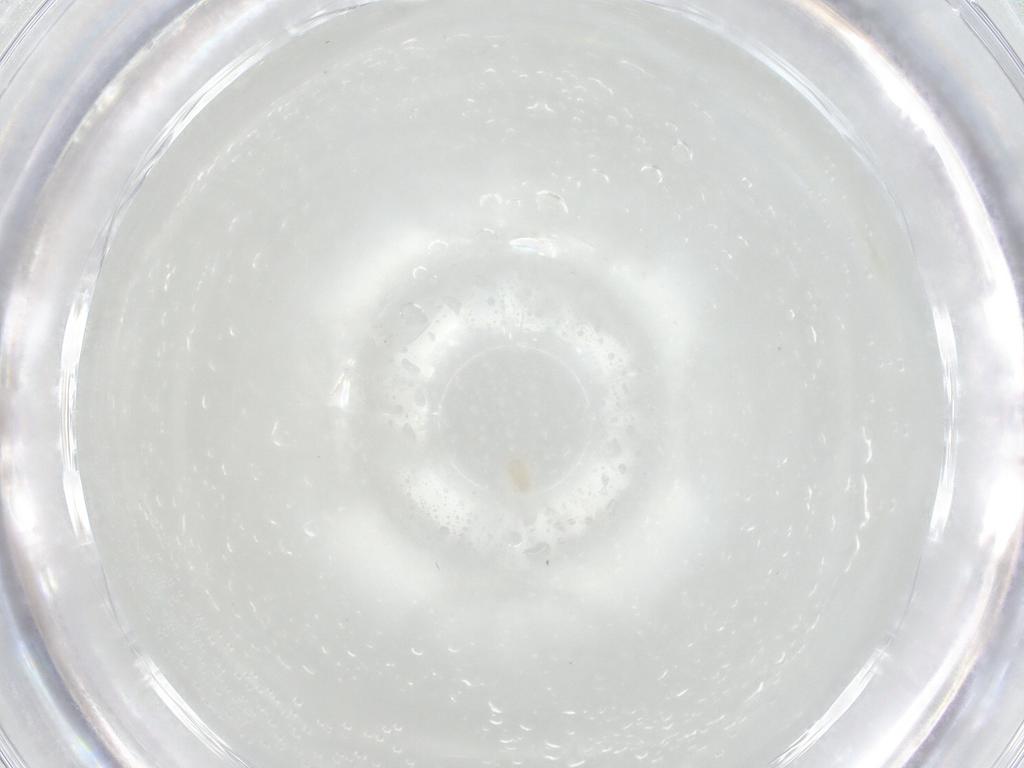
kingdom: Animalia
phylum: Arthropoda
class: Arachnida
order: Trombidiformes
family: Eupodidae
